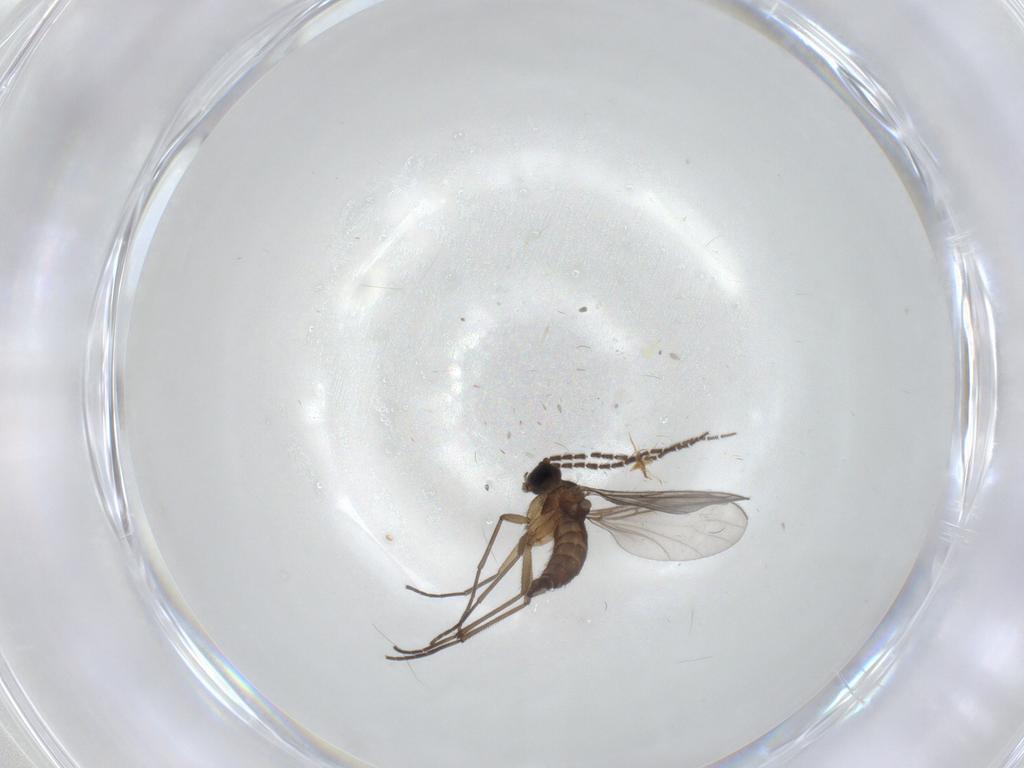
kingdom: Animalia
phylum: Arthropoda
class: Insecta
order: Diptera
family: Sciaridae
